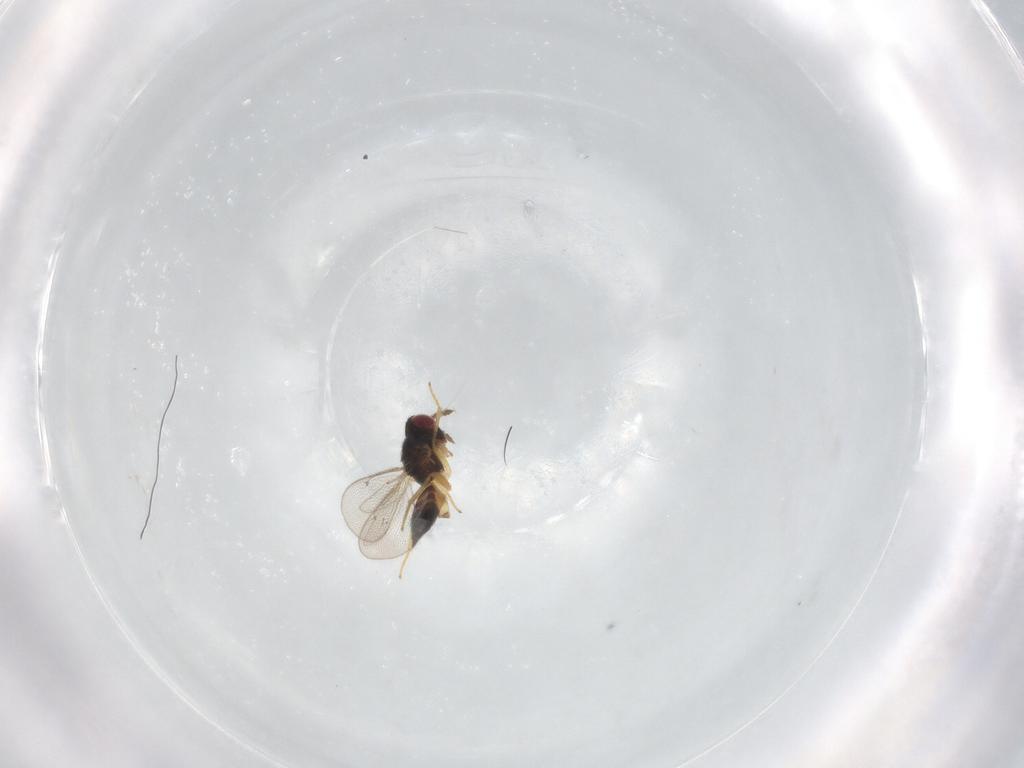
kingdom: Animalia
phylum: Arthropoda
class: Insecta
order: Hymenoptera
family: Eulophidae
